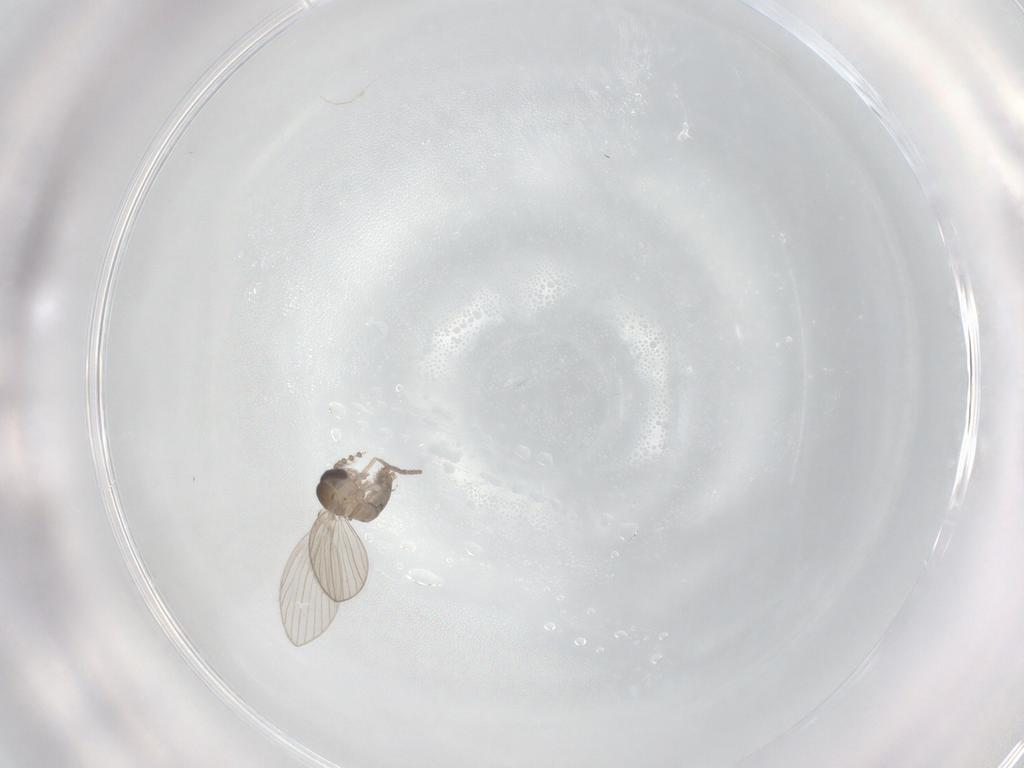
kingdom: Animalia
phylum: Arthropoda
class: Insecta
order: Diptera
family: Psychodidae
